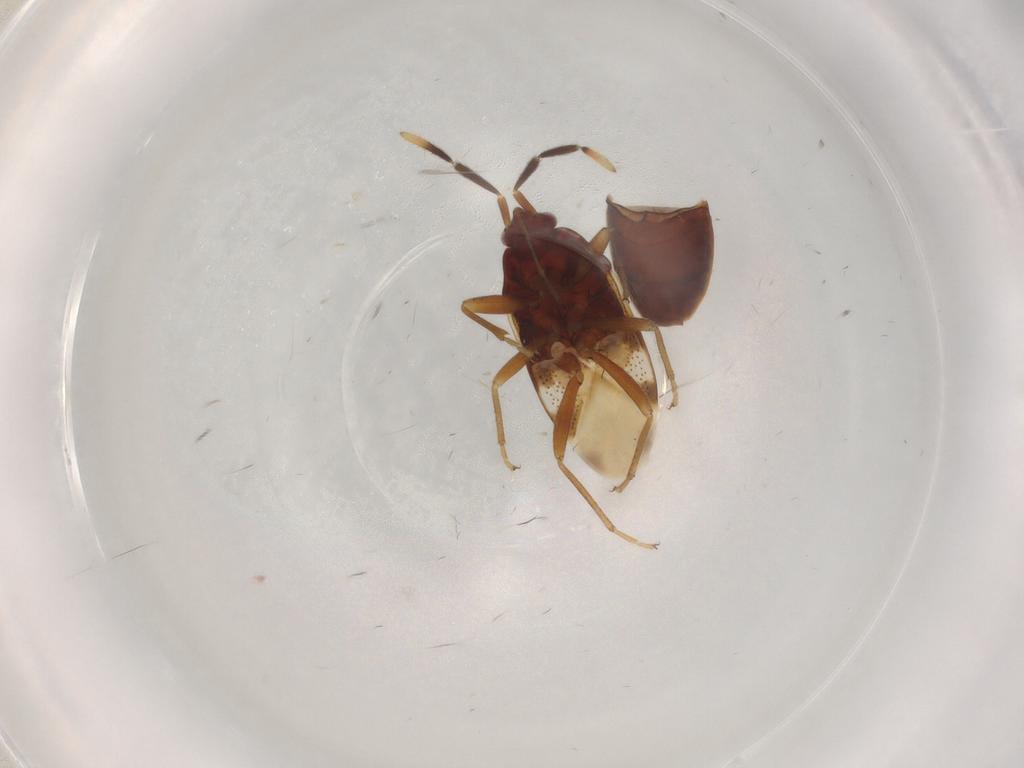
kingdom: Animalia
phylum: Arthropoda
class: Insecta
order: Hemiptera
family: Rhyparochromidae
